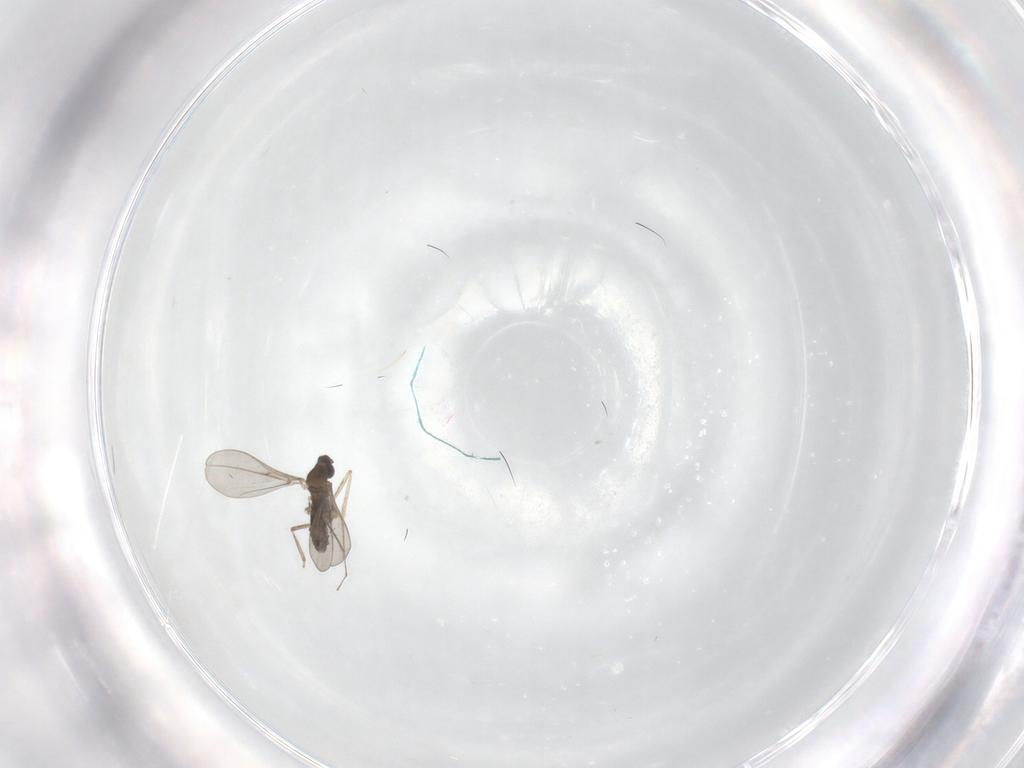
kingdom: Animalia
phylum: Arthropoda
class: Insecta
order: Diptera
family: Cecidomyiidae
